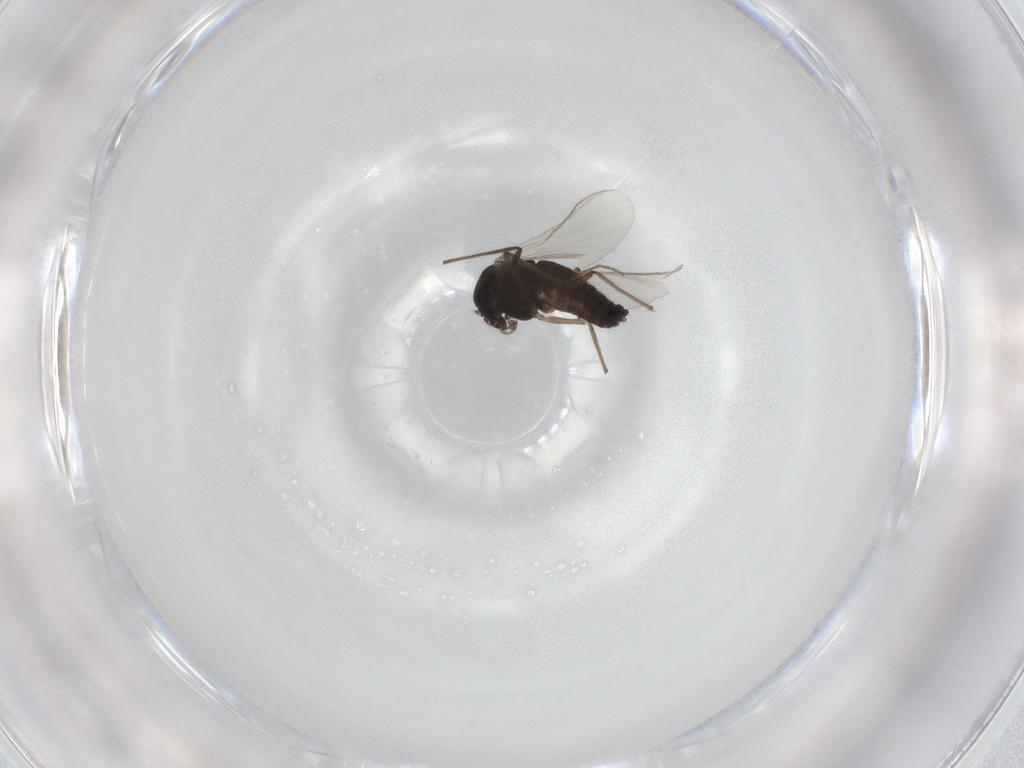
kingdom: Animalia
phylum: Arthropoda
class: Insecta
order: Diptera
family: Chironomidae
